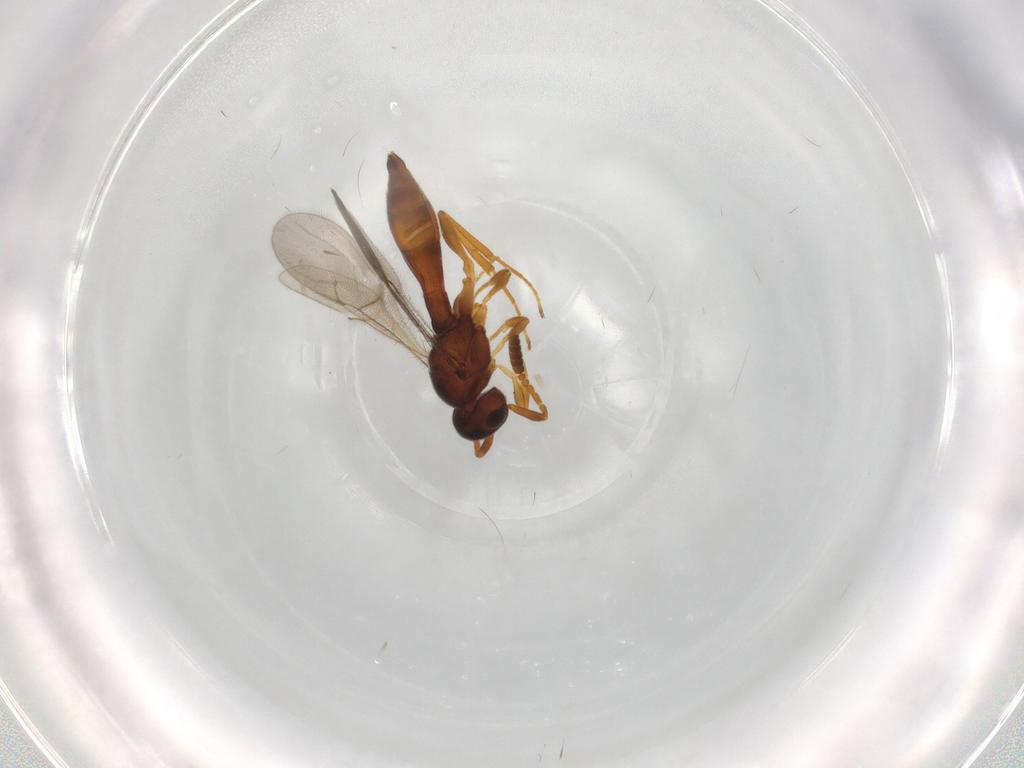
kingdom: Animalia
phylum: Arthropoda
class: Insecta
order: Hymenoptera
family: Scelionidae
